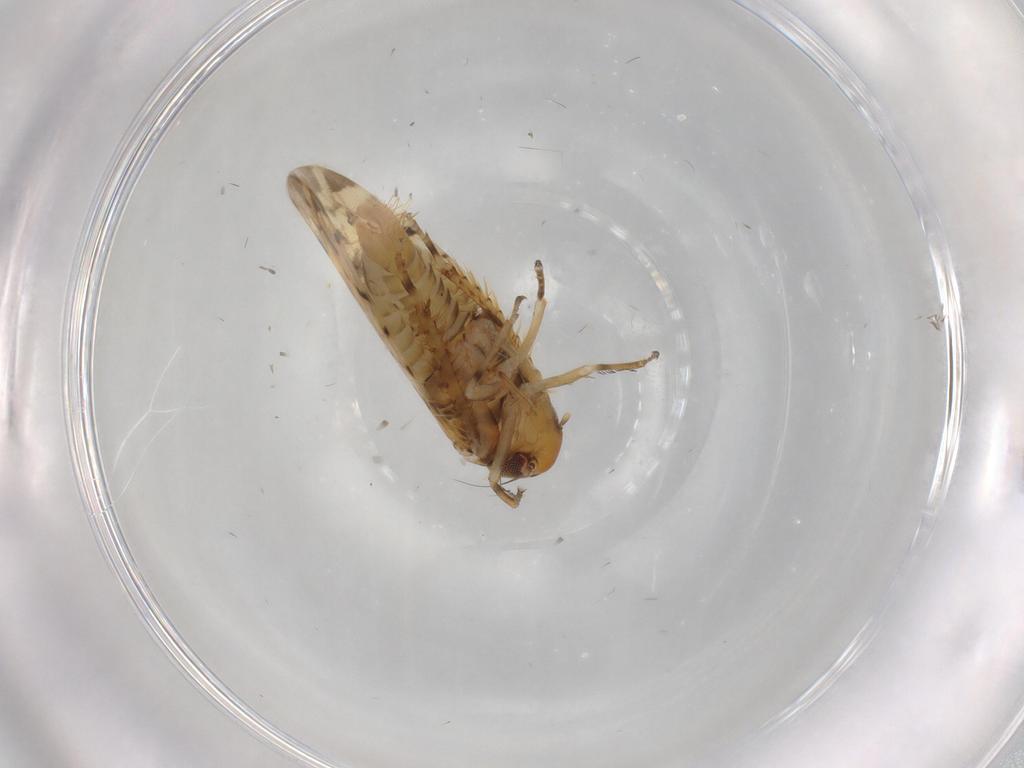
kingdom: Animalia
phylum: Arthropoda
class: Insecta
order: Hemiptera
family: Cicadellidae
